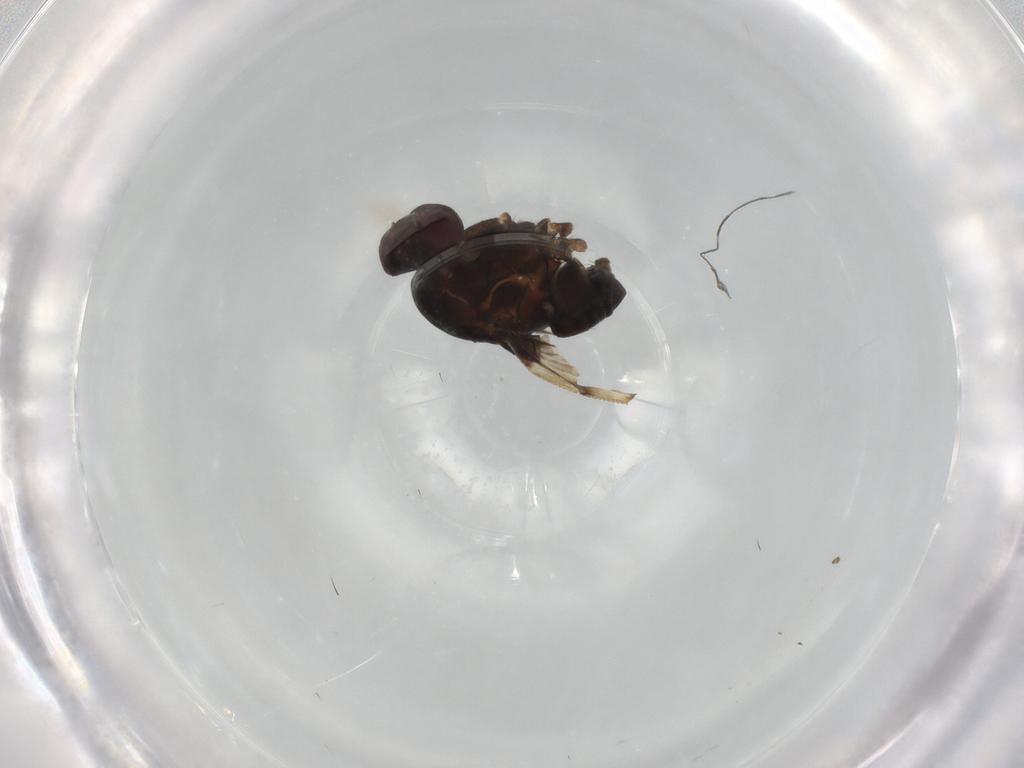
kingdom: Animalia
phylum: Arthropoda
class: Insecta
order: Diptera
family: Sphaeroceridae
